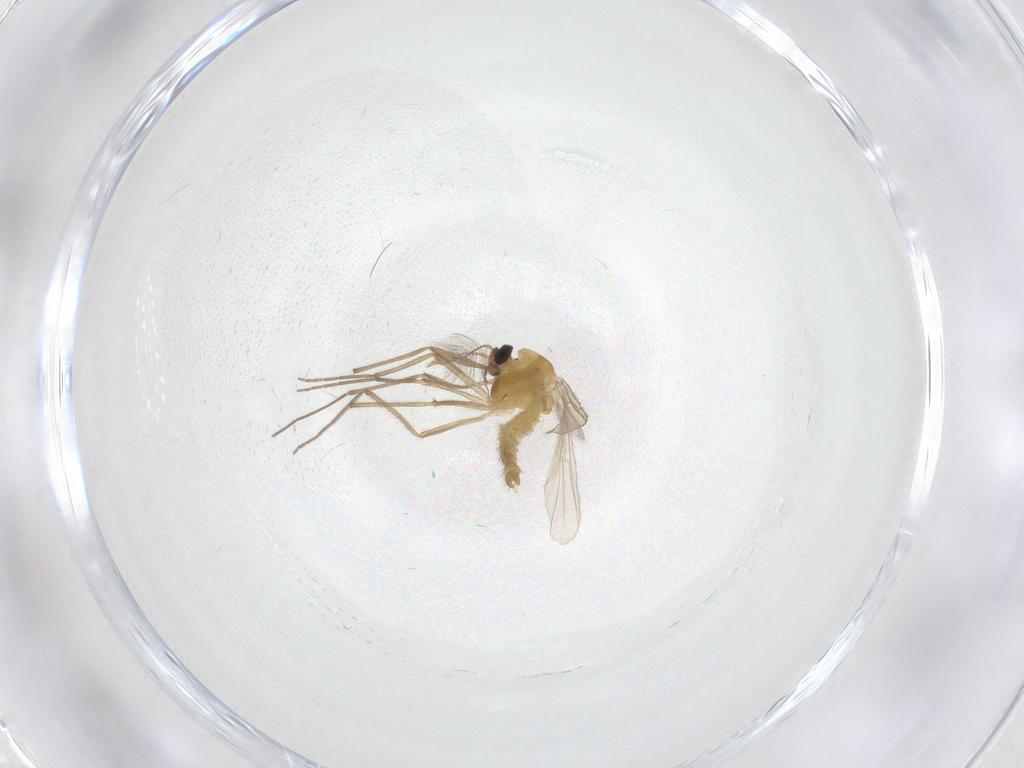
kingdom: Animalia
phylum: Arthropoda
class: Insecta
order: Diptera
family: Chironomidae
